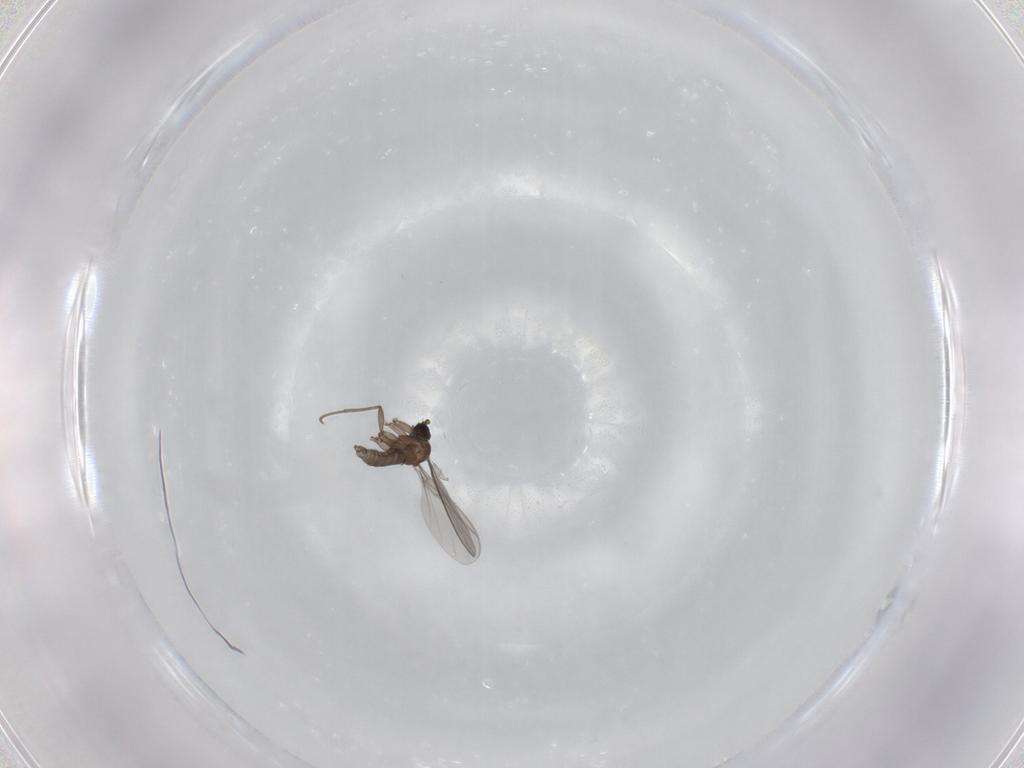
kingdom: Animalia
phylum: Arthropoda
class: Insecta
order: Diptera
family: Sciaridae
